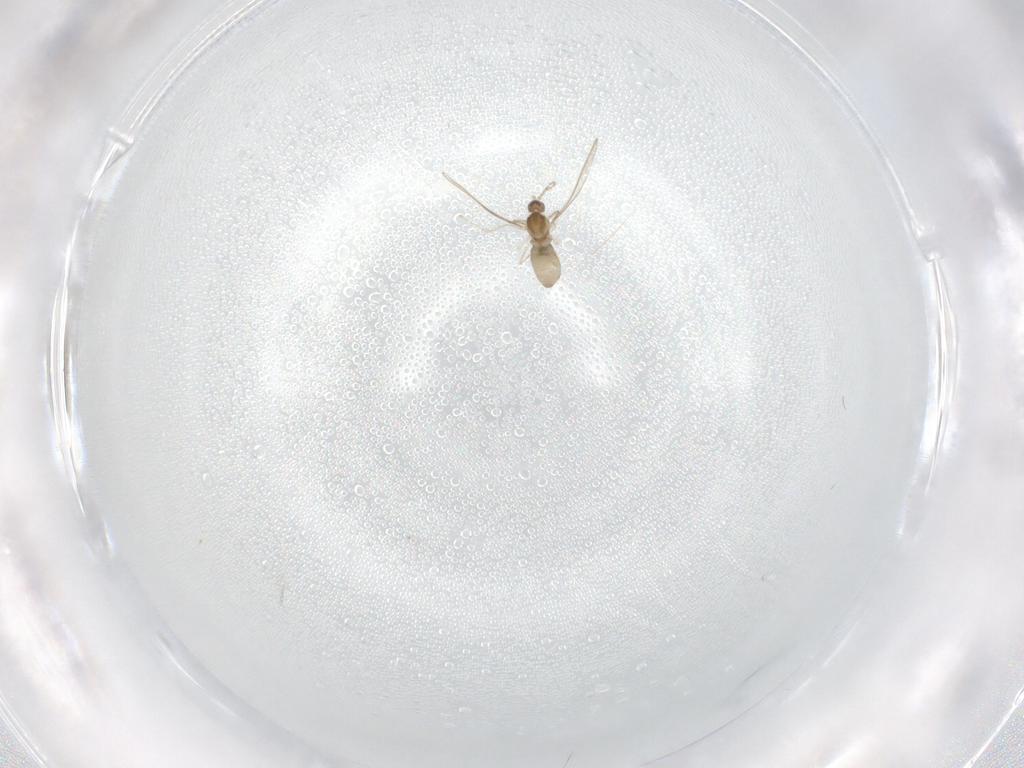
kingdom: Animalia
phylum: Arthropoda
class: Insecta
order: Diptera
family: Cecidomyiidae
